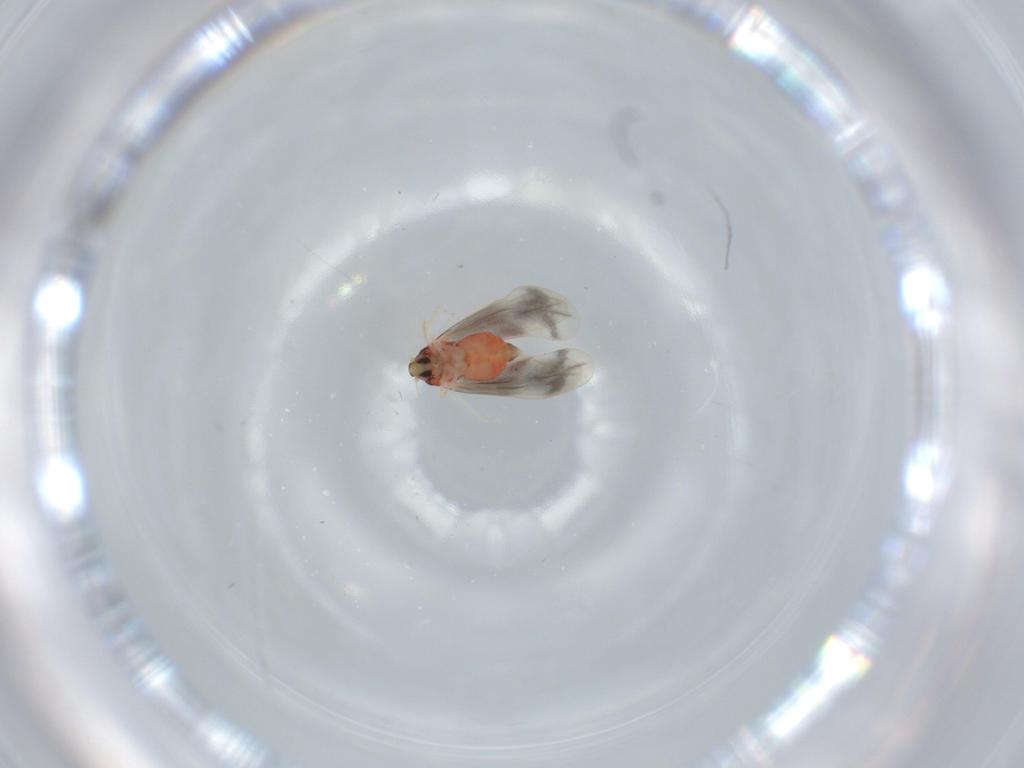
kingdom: Animalia
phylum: Arthropoda
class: Insecta
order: Hemiptera
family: Aleyrodidae
